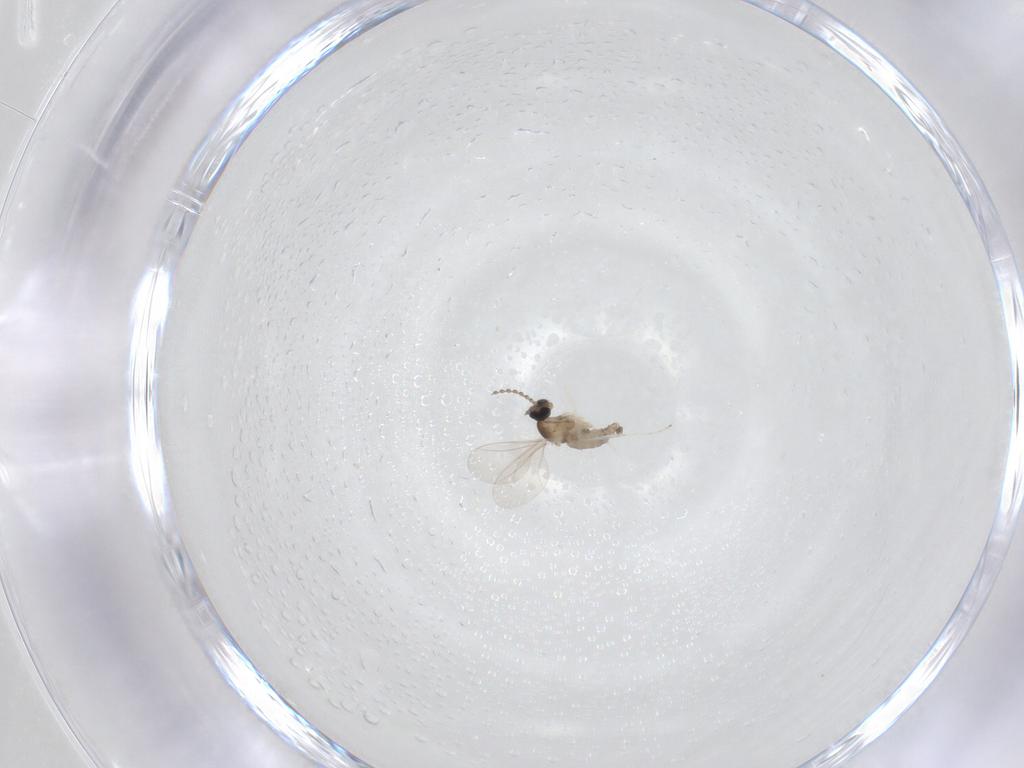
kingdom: Animalia
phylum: Arthropoda
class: Insecta
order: Diptera
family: Cecidomyiidae
